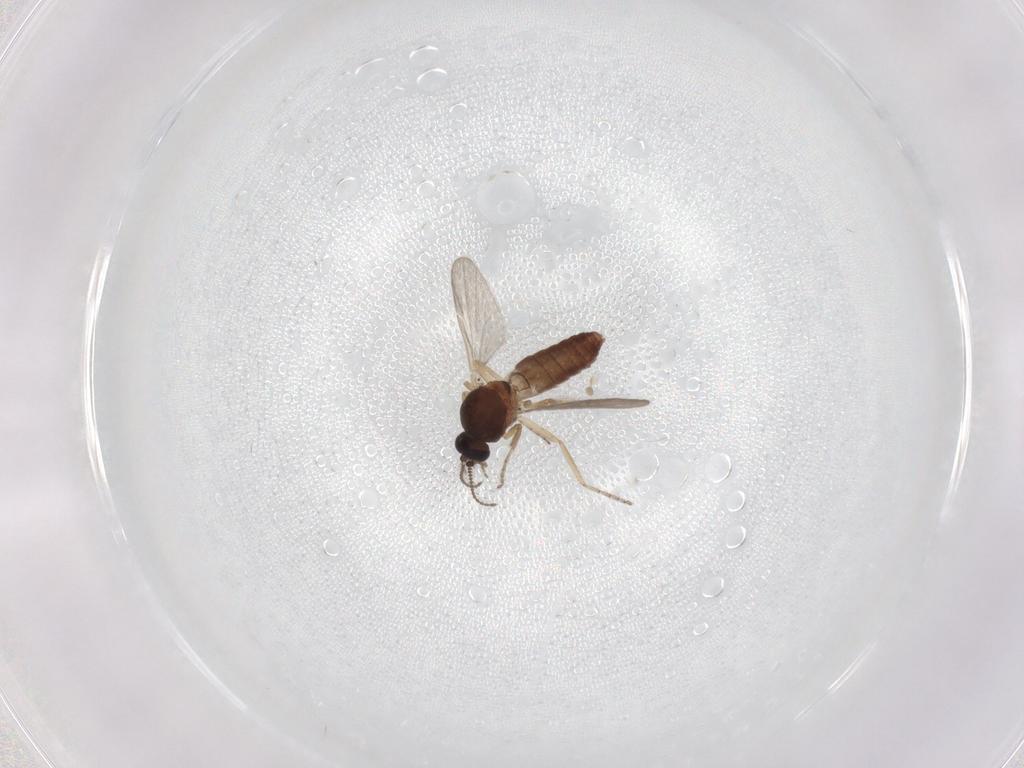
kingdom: Animalia
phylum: Arthropoda
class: Insecta
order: Diptera
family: Ceratopogonidae
